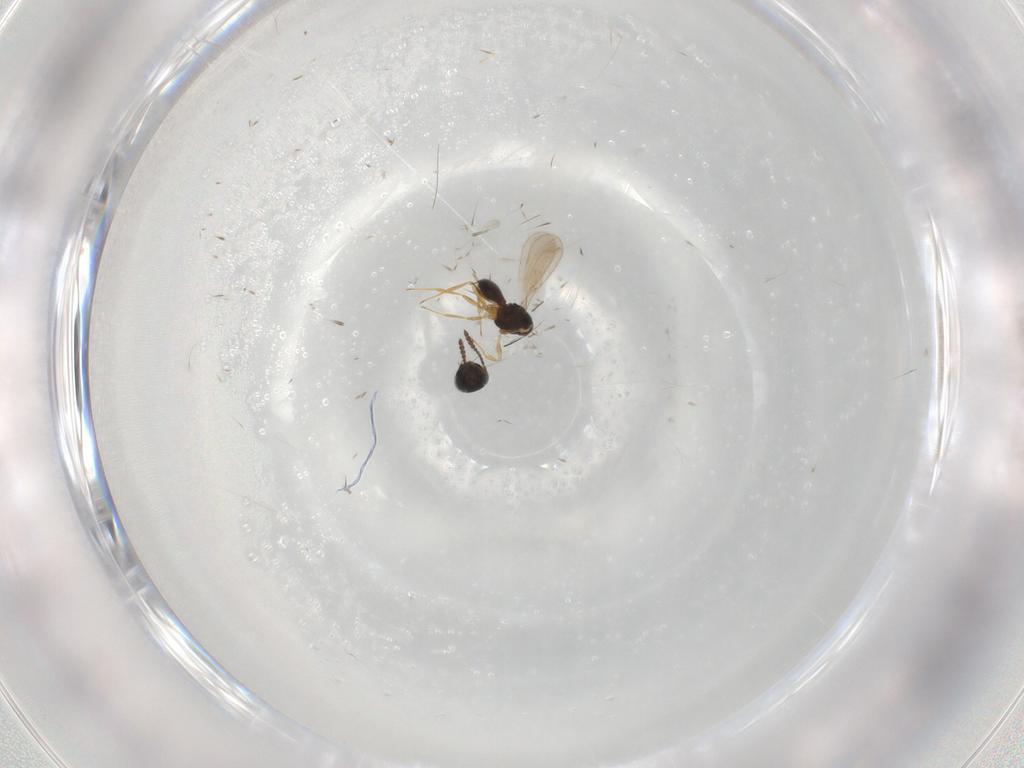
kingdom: Animalia
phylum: Arthropoda
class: Insecta
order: Hymenoptera
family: Scelionidae
